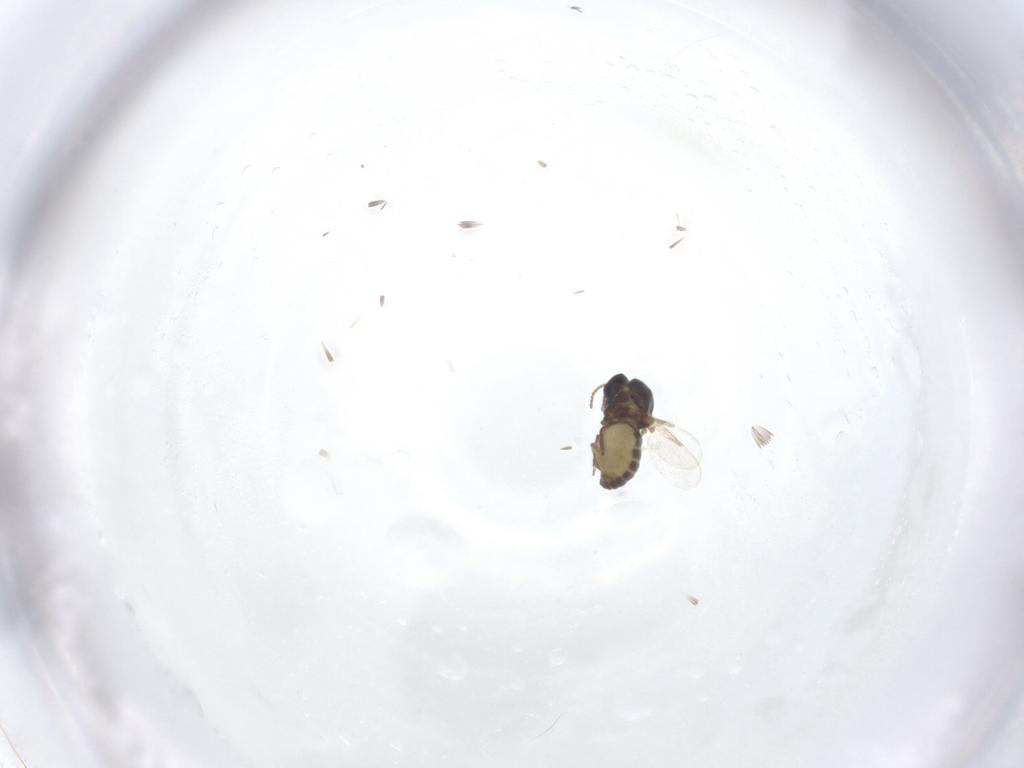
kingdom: Animalia
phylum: Arthropoda
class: Insecta
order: Diptera
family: Ceratopogonidae
